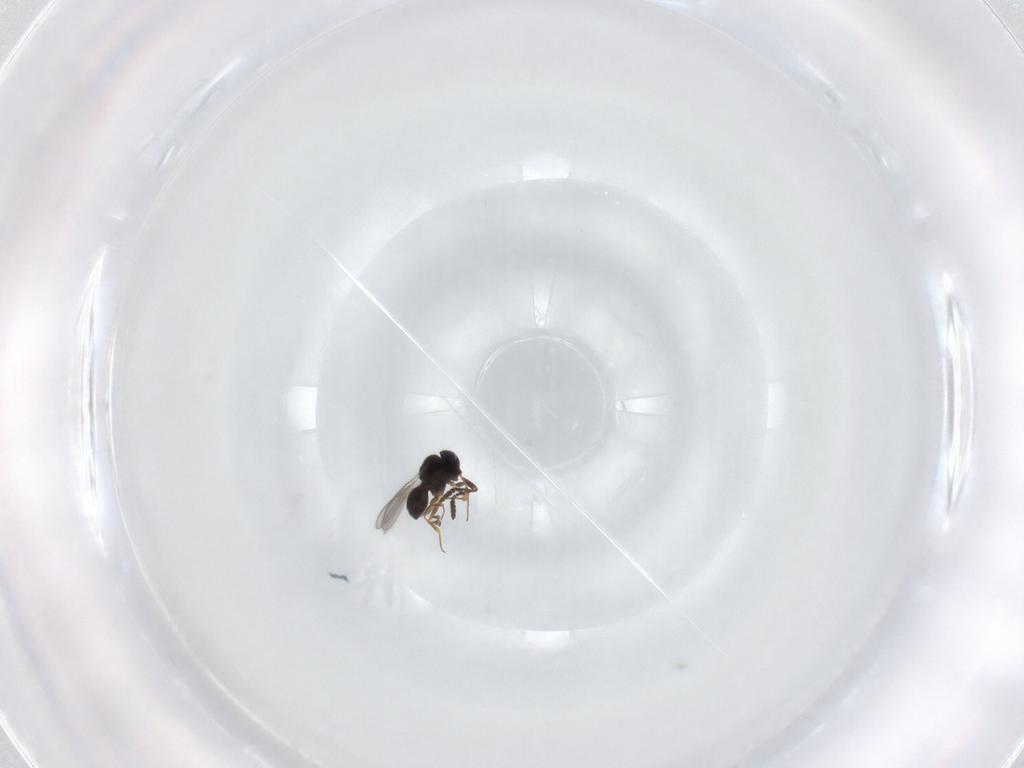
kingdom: Animalia
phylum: Arthropoda
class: Insecta
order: Hymenoptera
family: Scelionidae
